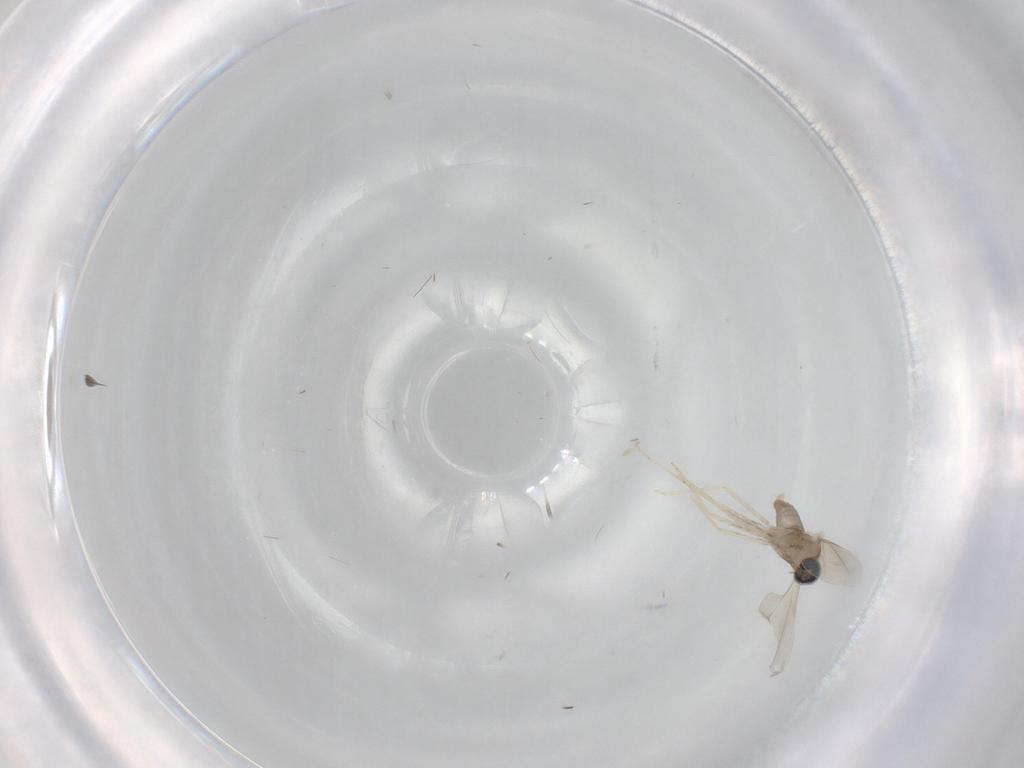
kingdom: Animalia
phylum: Arthropoda
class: Insecta
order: Diptera
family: Cecidomyiidae
